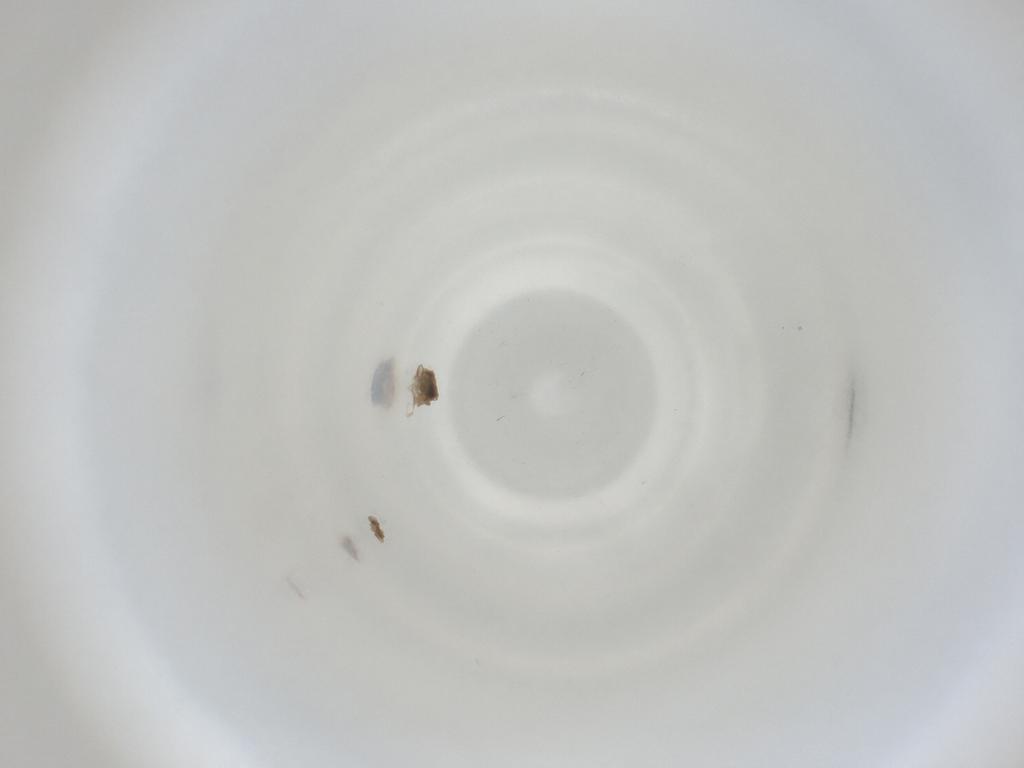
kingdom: Animalia
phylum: Arthropoda
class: Insecta
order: Diptera
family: Cecidomyiidae
